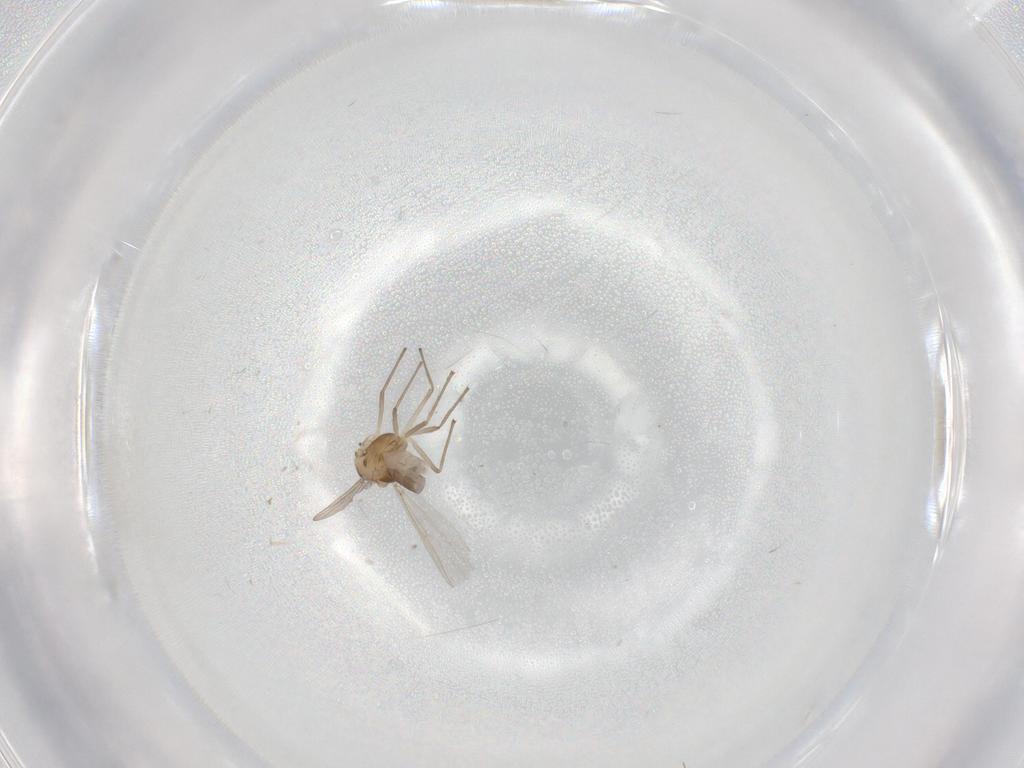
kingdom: Animalia
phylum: Arthropoda
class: Insecta
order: Diptera
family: Chironomidae
